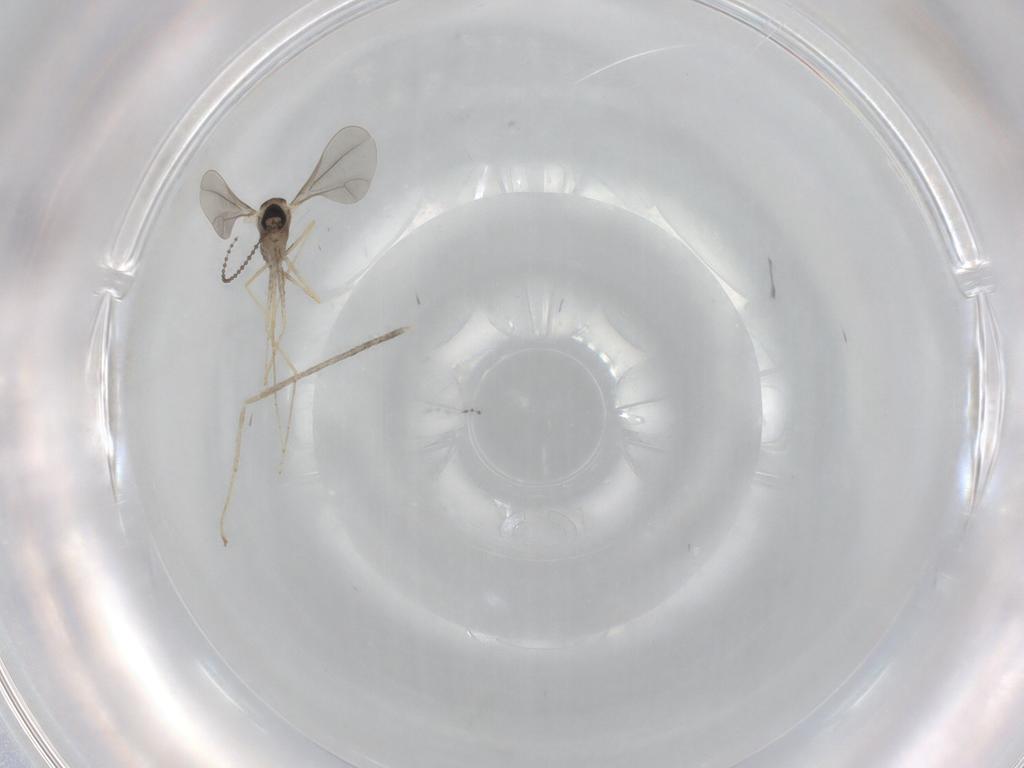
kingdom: Animalia
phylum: Arthropoda
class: Insecta
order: Diptera
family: Cecidomyiidae
